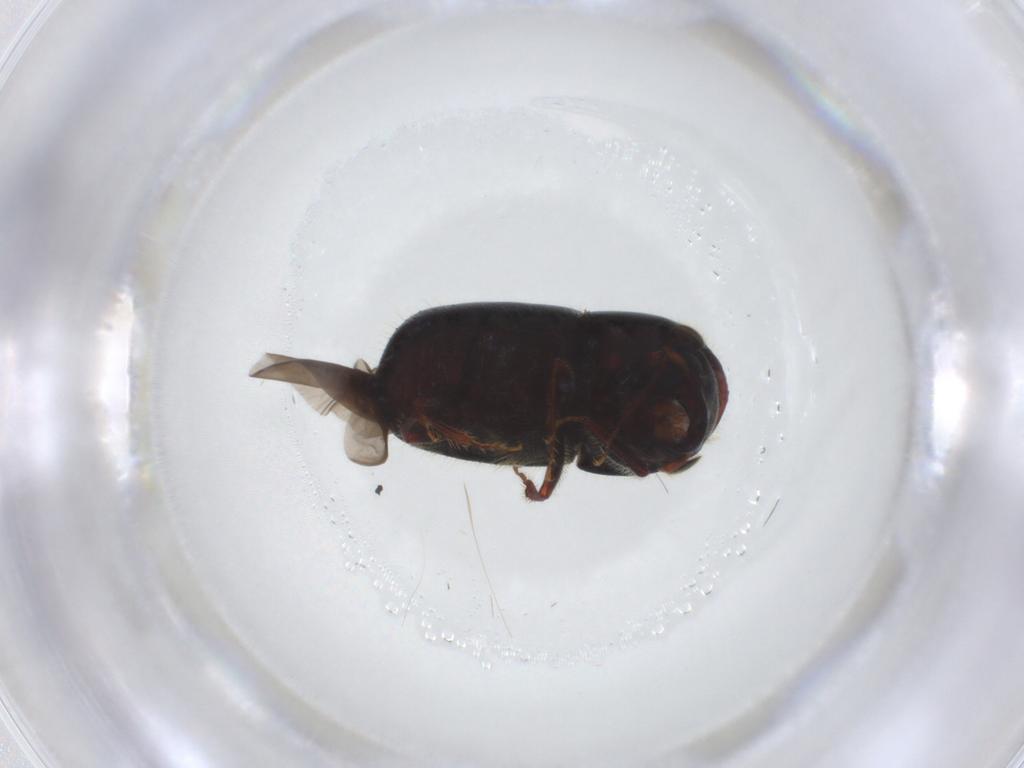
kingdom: Animalia
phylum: Arthropoda
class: Insecta
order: Coleoptera
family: Curculionidae
